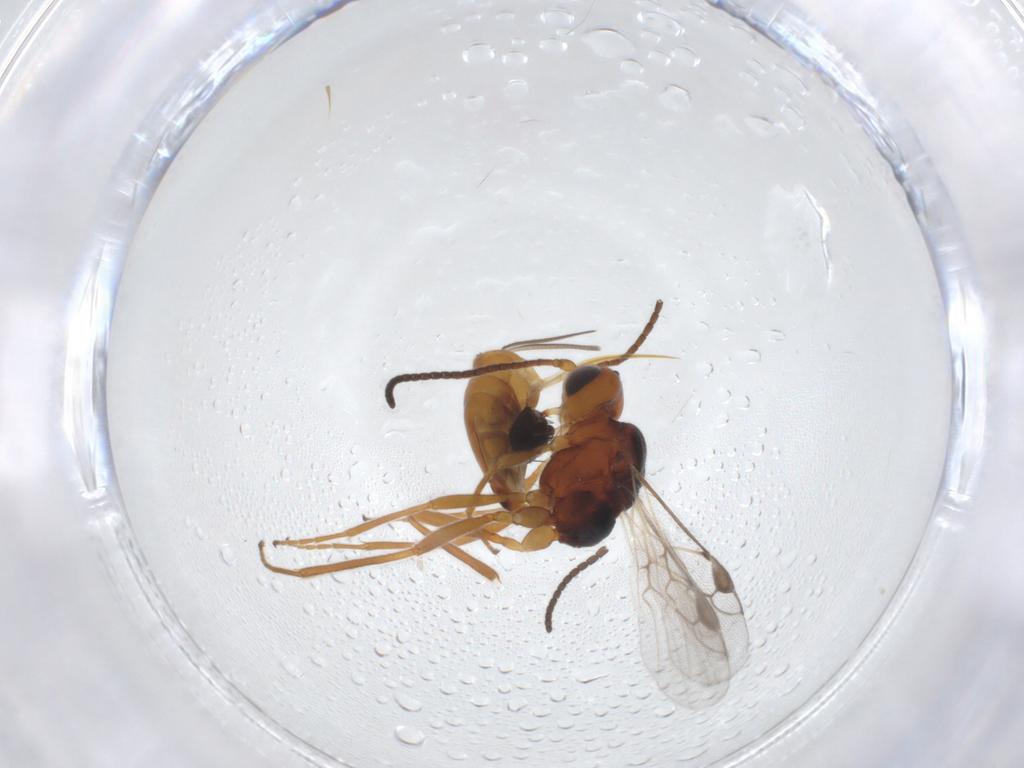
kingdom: Animalia
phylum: Arthropoda
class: Insecta
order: Hymenoptera
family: Braconidae
